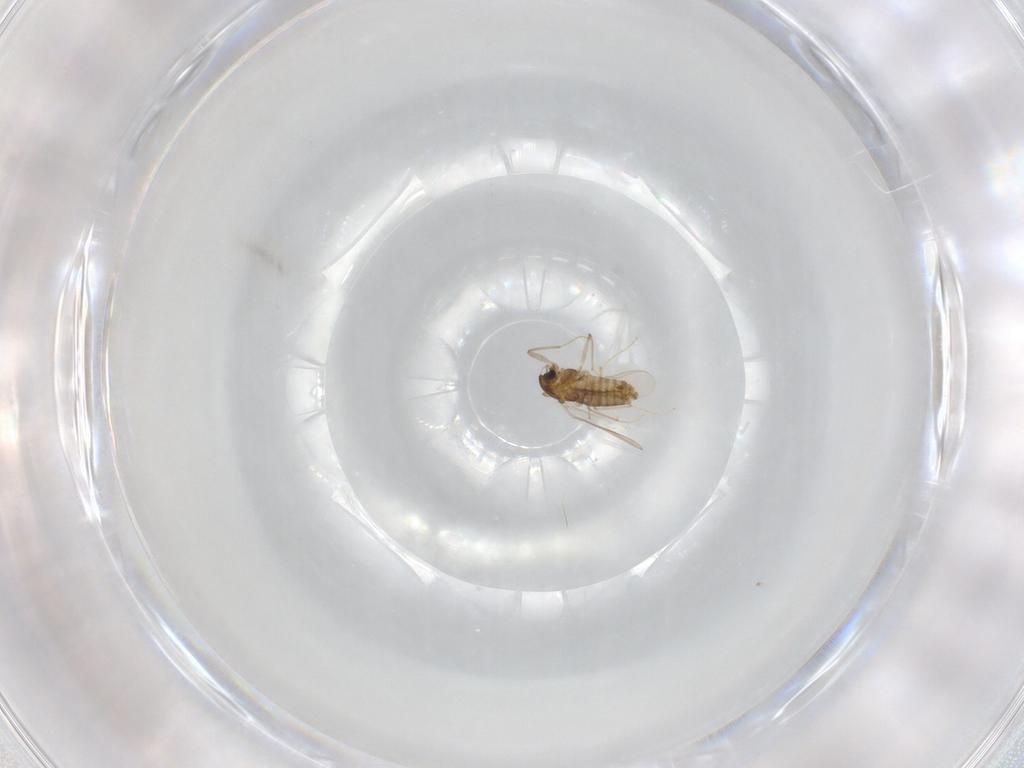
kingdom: Animalia
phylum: Arthropoda
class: Insecta
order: Diptera
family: Chironomidae
